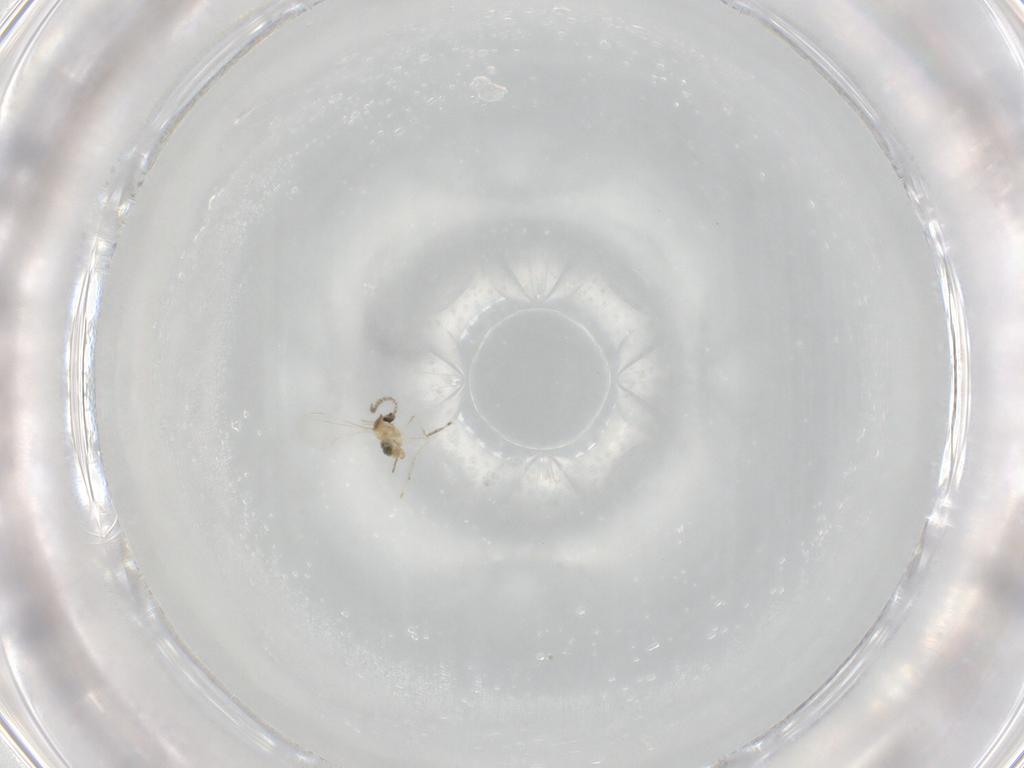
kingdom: Animalia
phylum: Arthropoda
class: Insecta
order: Diptera
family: Cecidomyiidae
